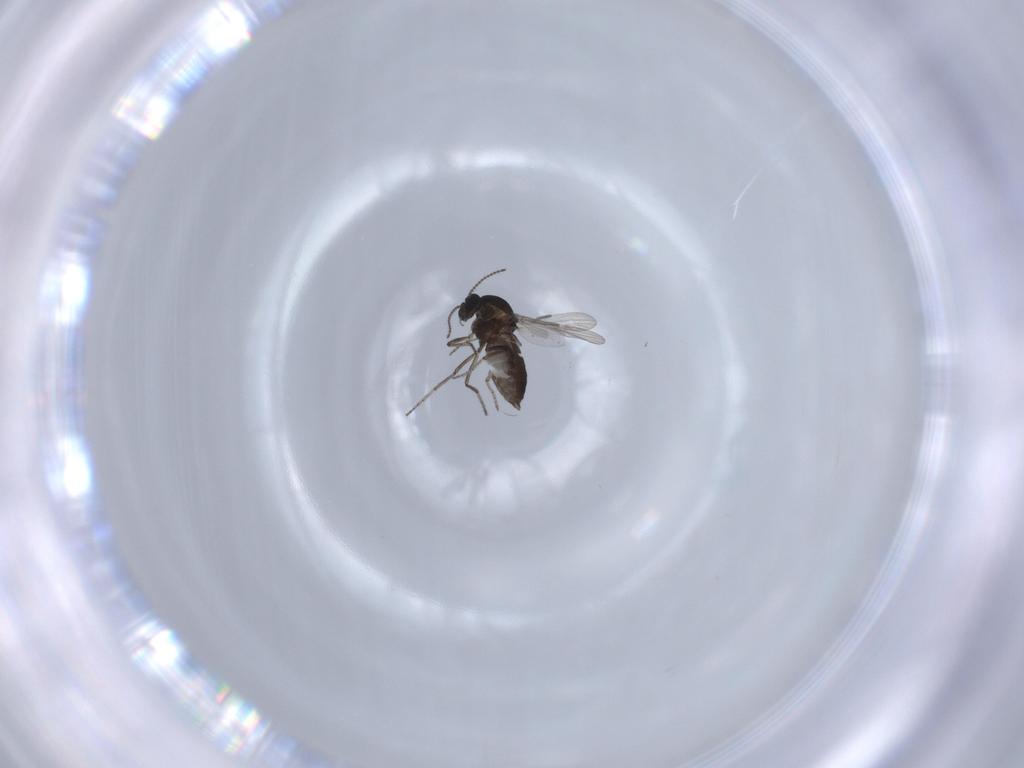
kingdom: Animalia
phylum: Arthropoda
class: Insecta
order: Diptera
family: Ceratopogonidae
